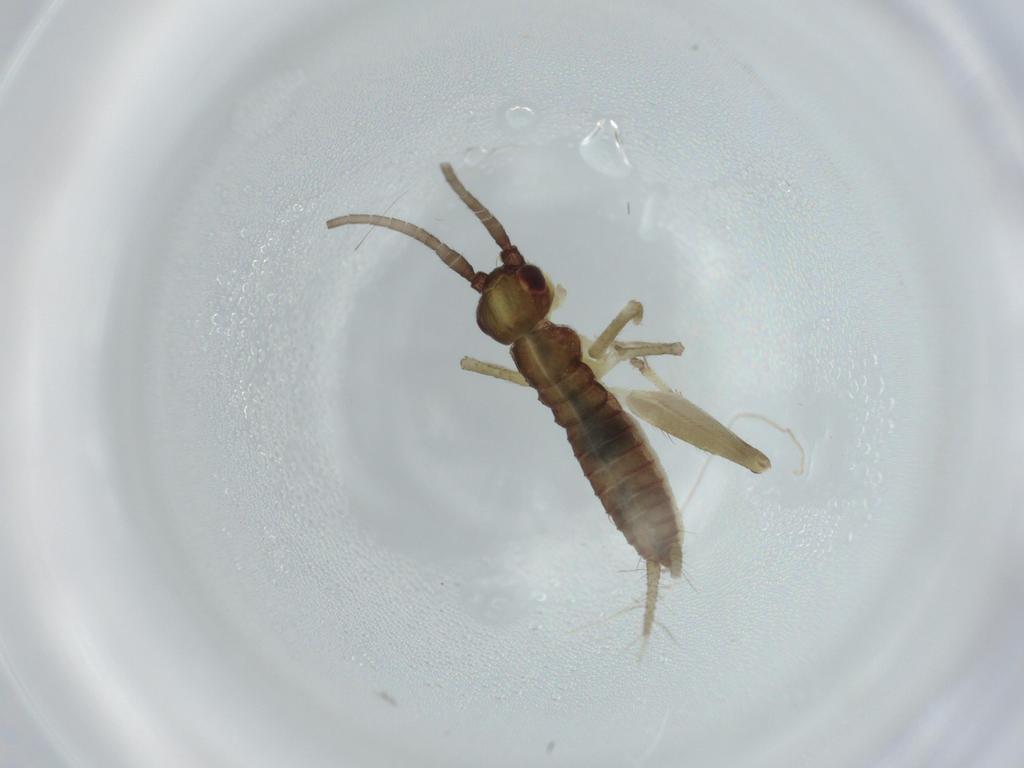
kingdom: Animalia
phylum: Arthropoda
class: Insecta
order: Orthoptera
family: Gryllidae
